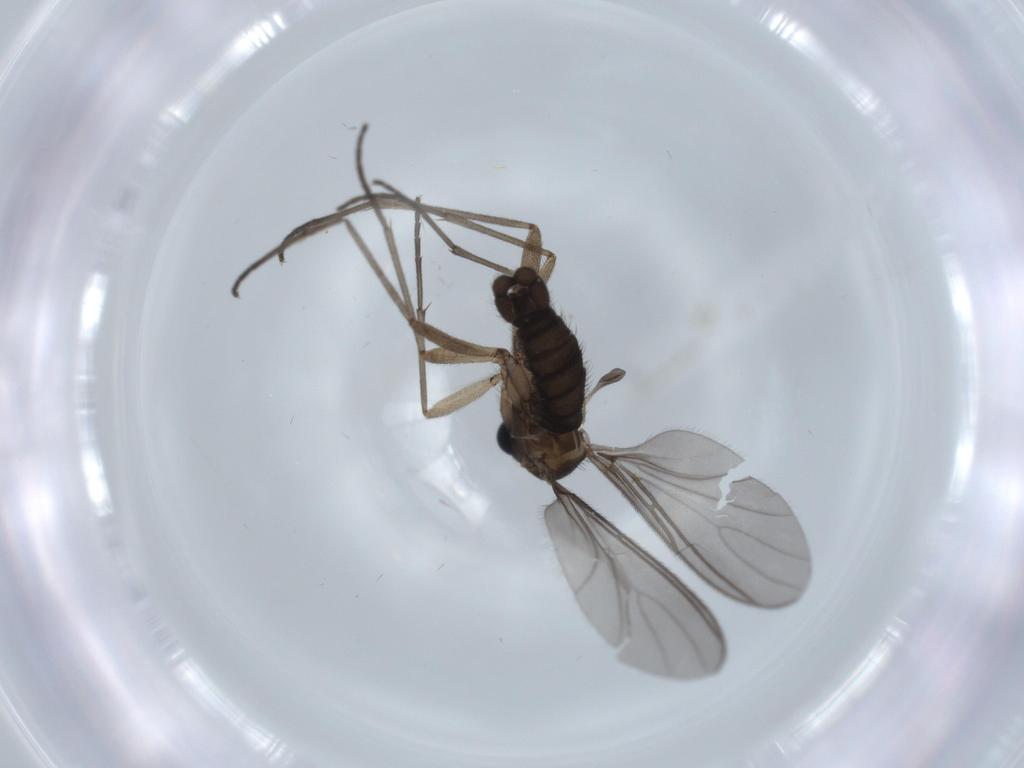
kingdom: Animalia
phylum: Arthropoda
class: Insecta
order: Diptera
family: Sciaridae
